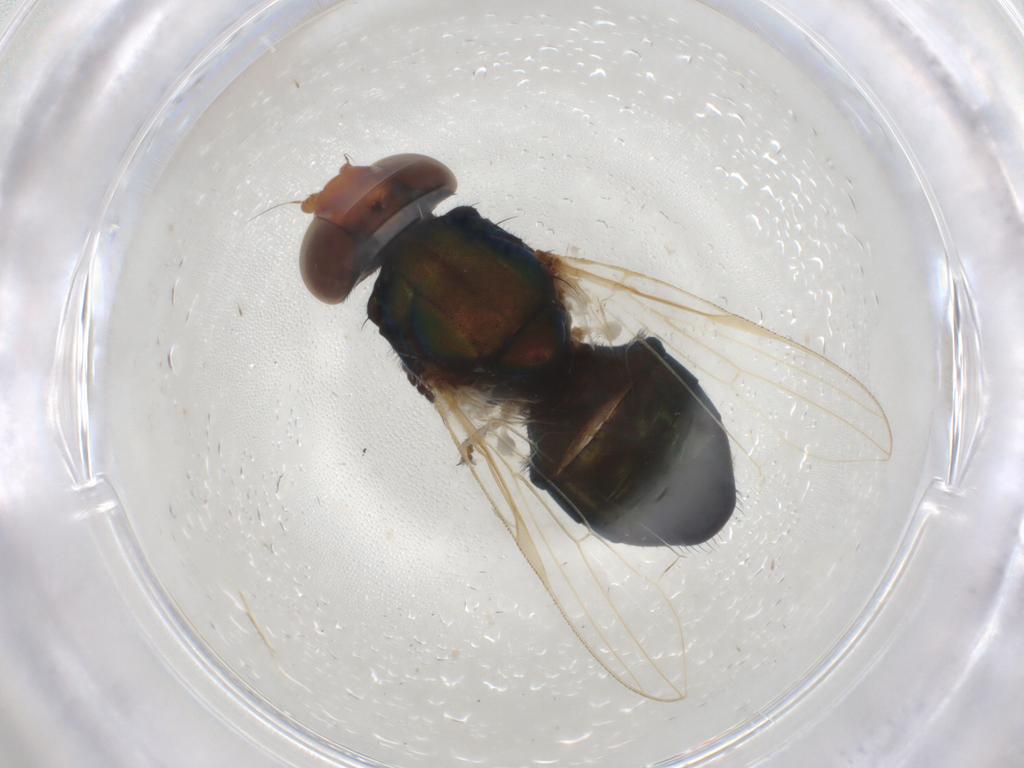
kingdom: Animalia
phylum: Arthropoda
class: Insecta
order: Diptera
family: Ulidiidae
